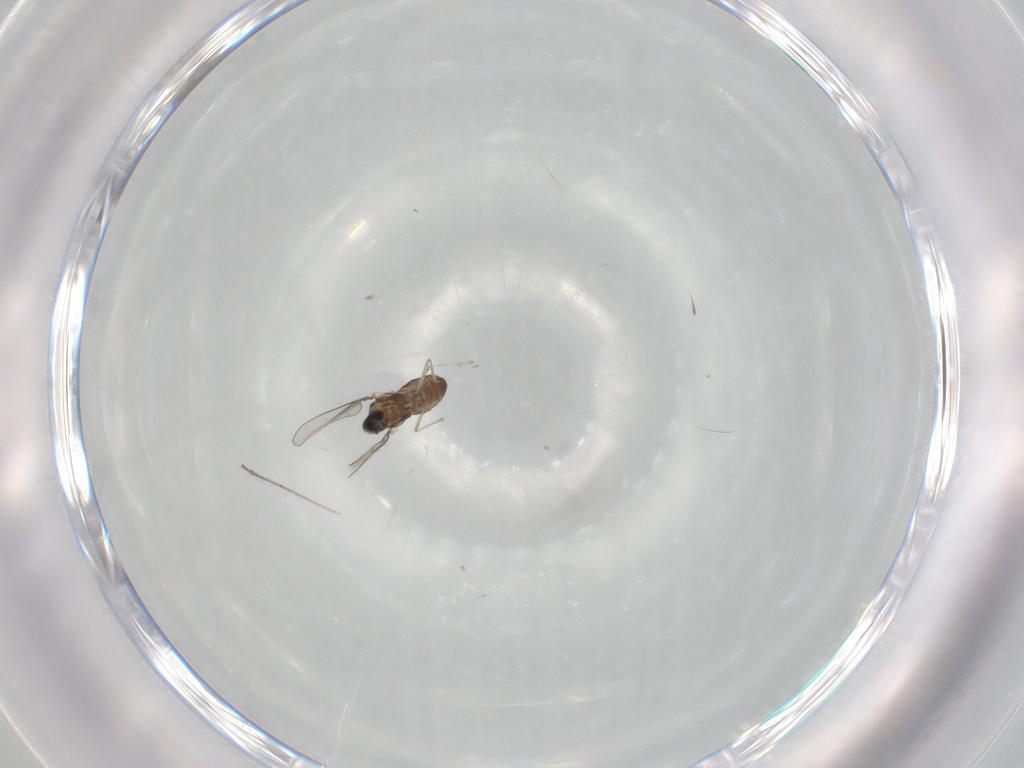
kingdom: Animalia
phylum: Arthropoda
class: Insecta
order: Diptera
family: Cecidomyiidae
